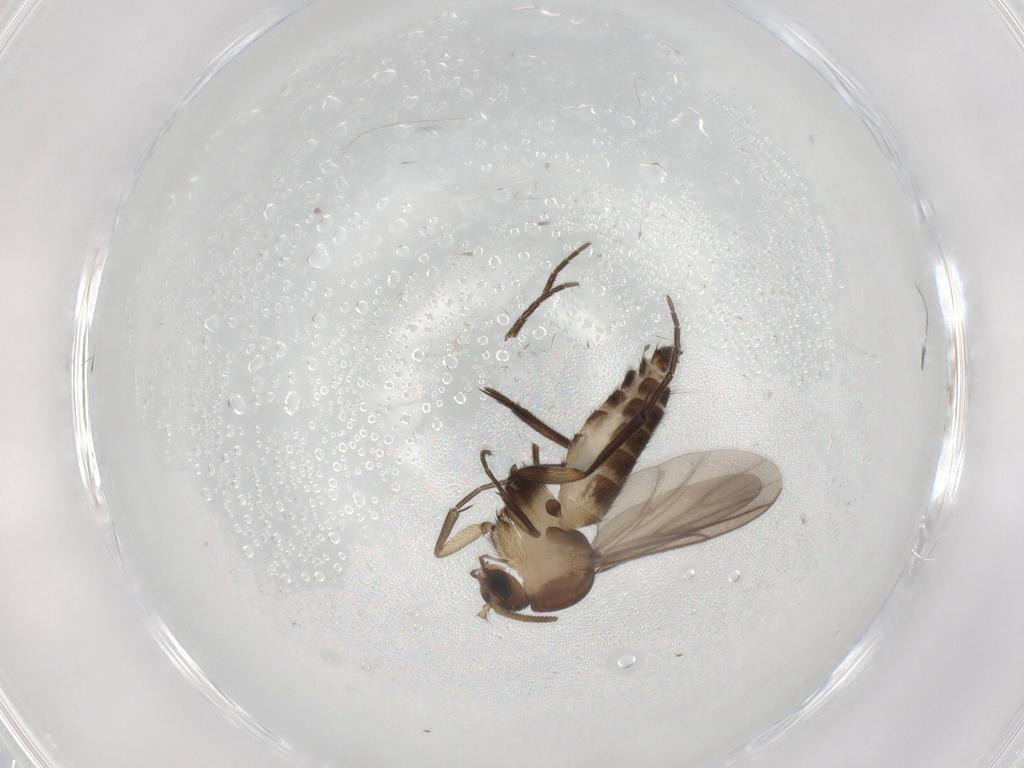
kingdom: Animalia
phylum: Arthropoda
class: Insecta
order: Diptera
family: Mycetophilidae
